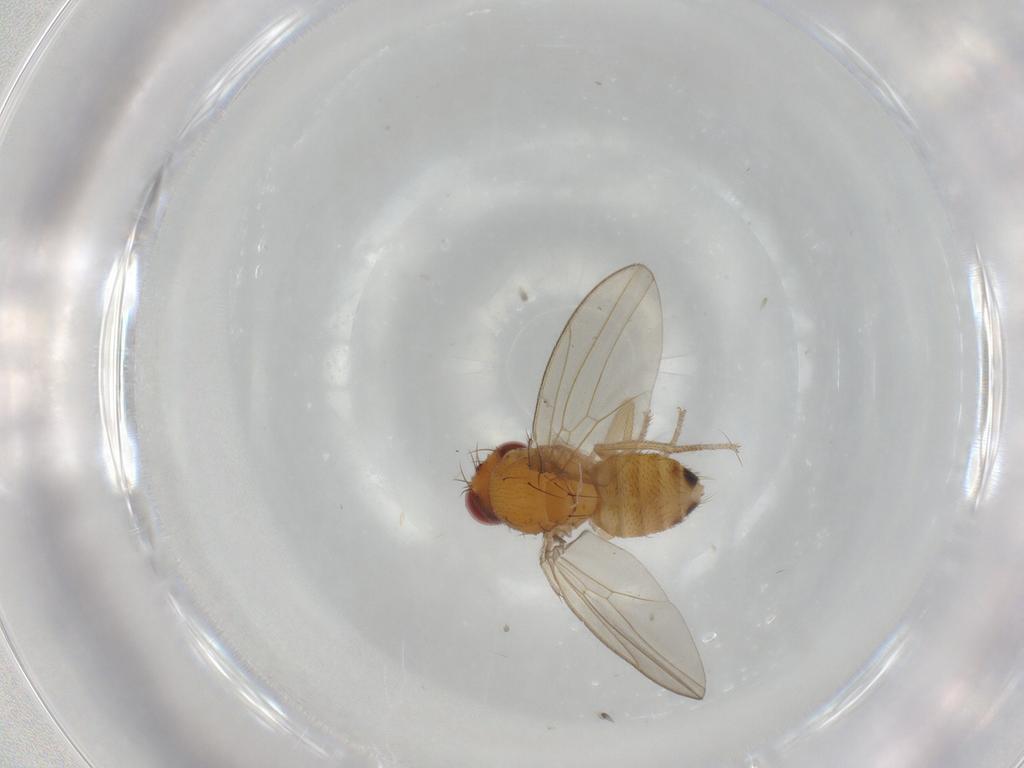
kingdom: Animalia
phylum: Arthropoda
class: Insecta
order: Diptera
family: Drosophilidae
